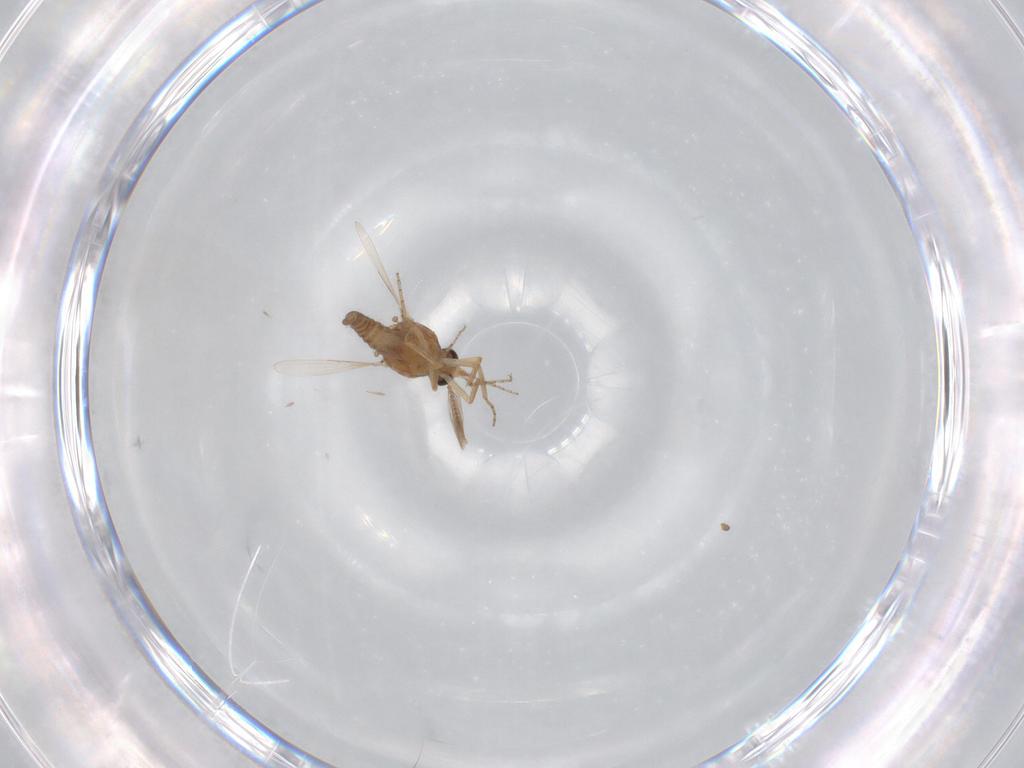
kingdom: Animalia
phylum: Arthropoda
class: Insecta
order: Diptera
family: Ceratopogonidae
